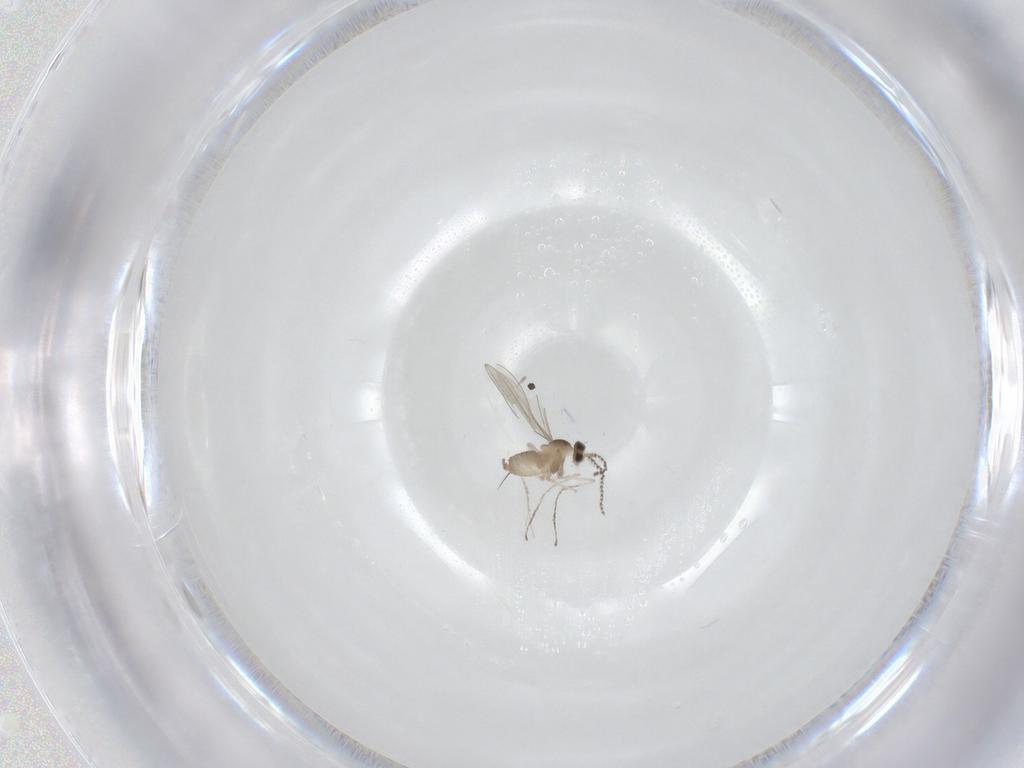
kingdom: Animalia
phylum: Arthropoda
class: Insecta
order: Diptera
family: Cecidomyiidae
